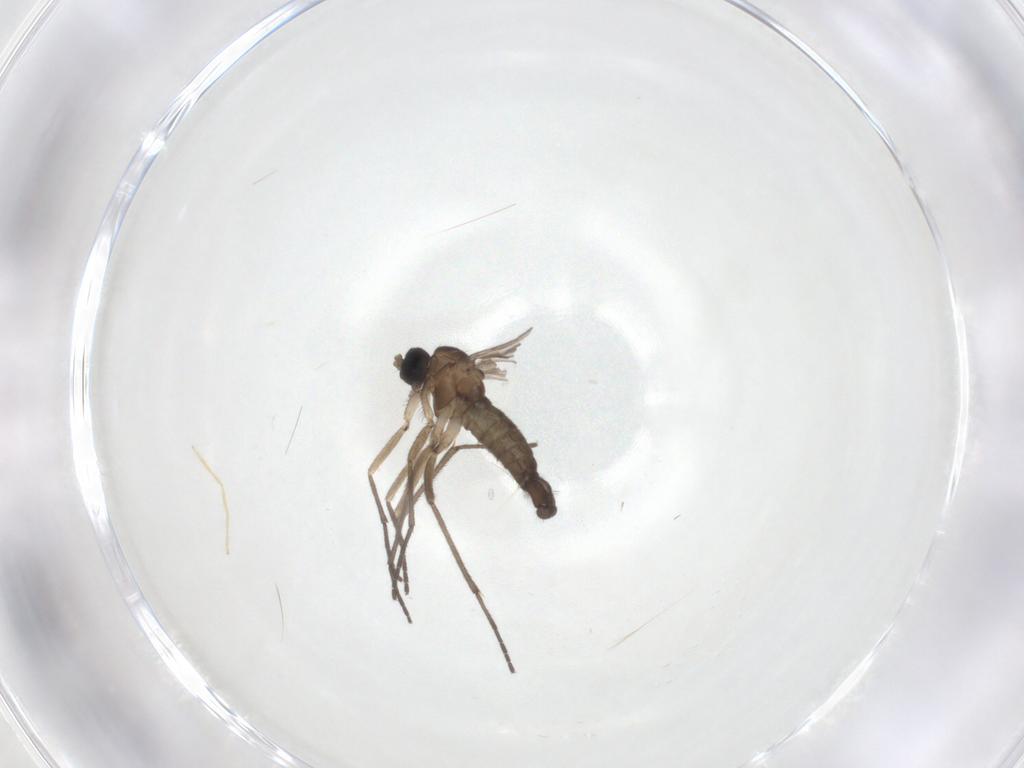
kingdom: Animalia
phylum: Arthropoda
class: Insecta
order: Diptera
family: Sciaridae
